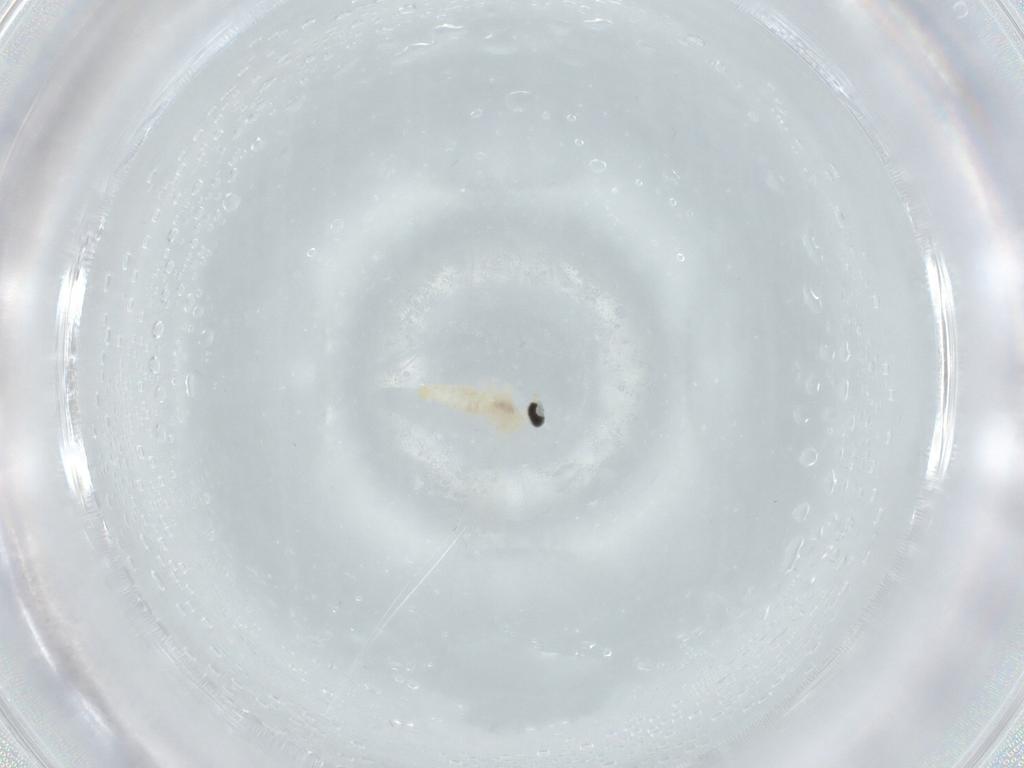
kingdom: Animalia
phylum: Arthropoda
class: Insecta
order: Diptera
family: Cecidomyiidae
